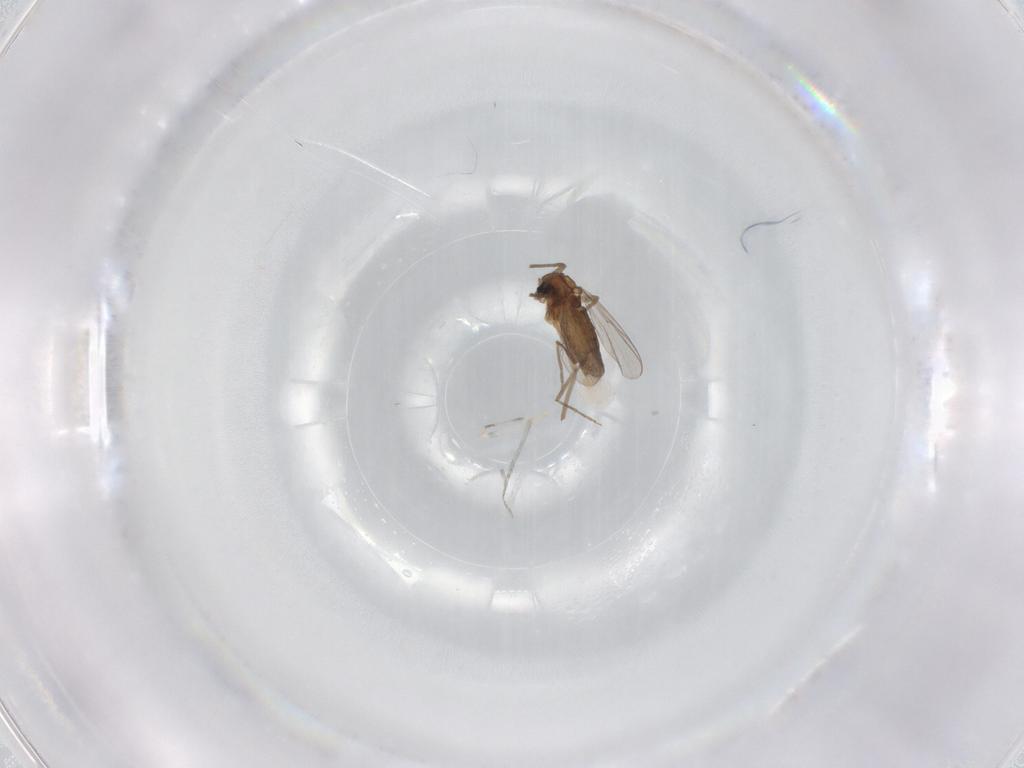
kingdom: Animalia
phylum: Arthropoda
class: Insecta
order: Diptera
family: Chironomidae
